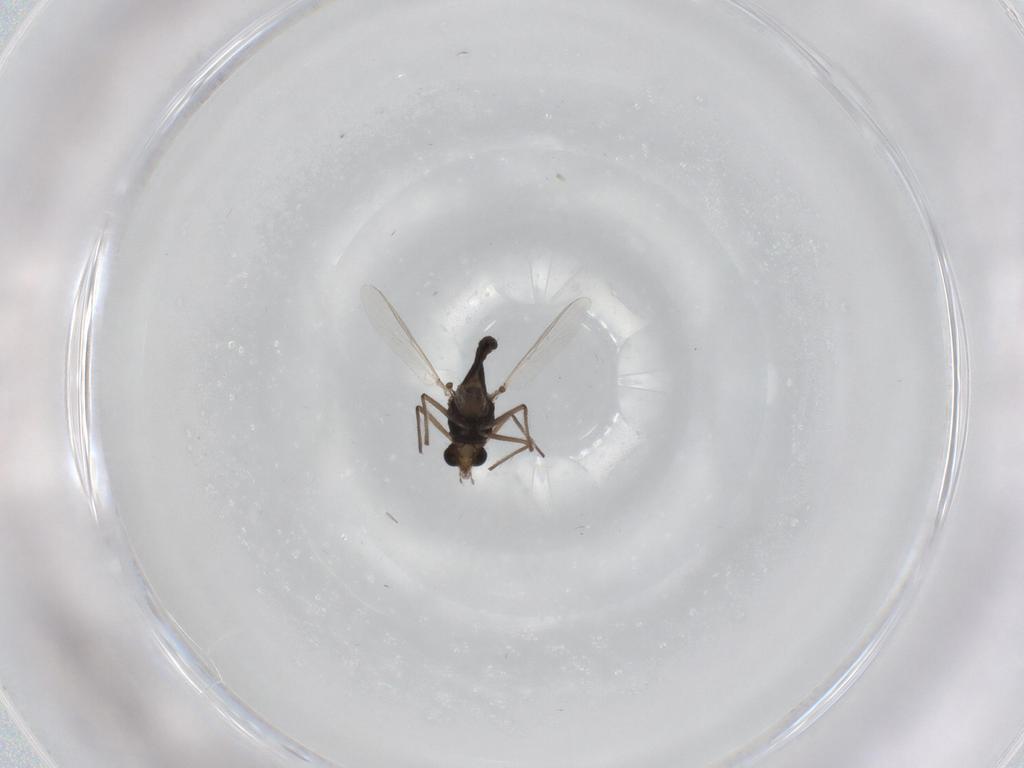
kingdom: Animalia
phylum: Arthropoda
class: Insecta
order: Diptera
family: Chironomidae
